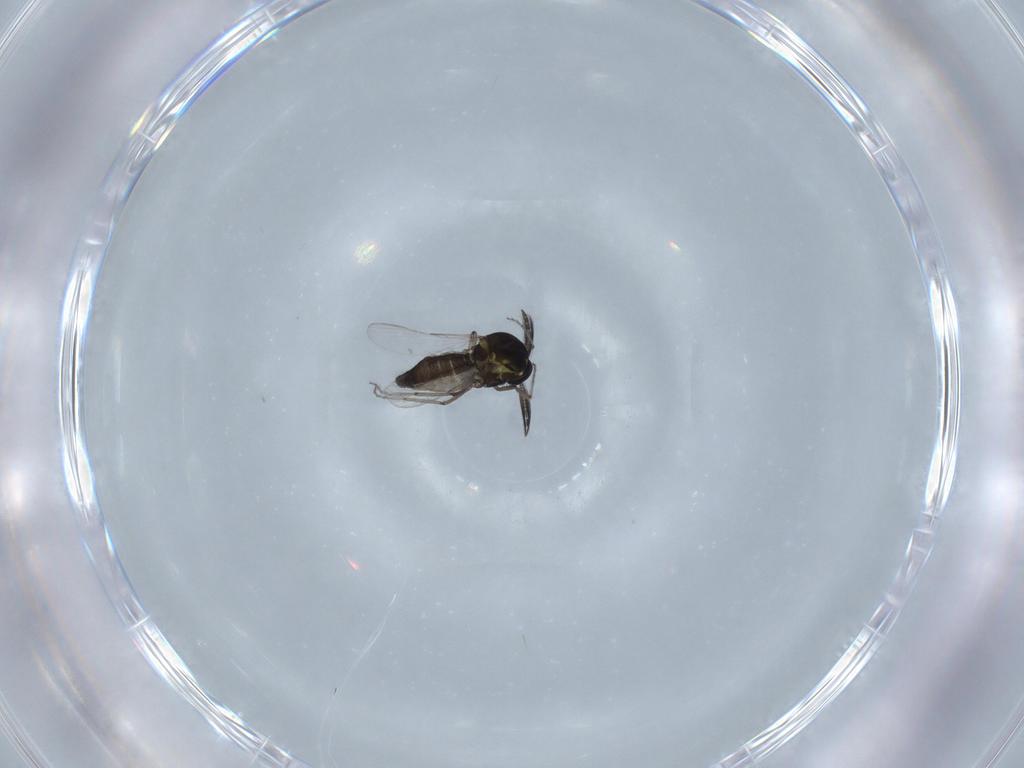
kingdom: Animalia
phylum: Arthropoda
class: Insecta
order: Diptera
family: Ceratopogonidae
